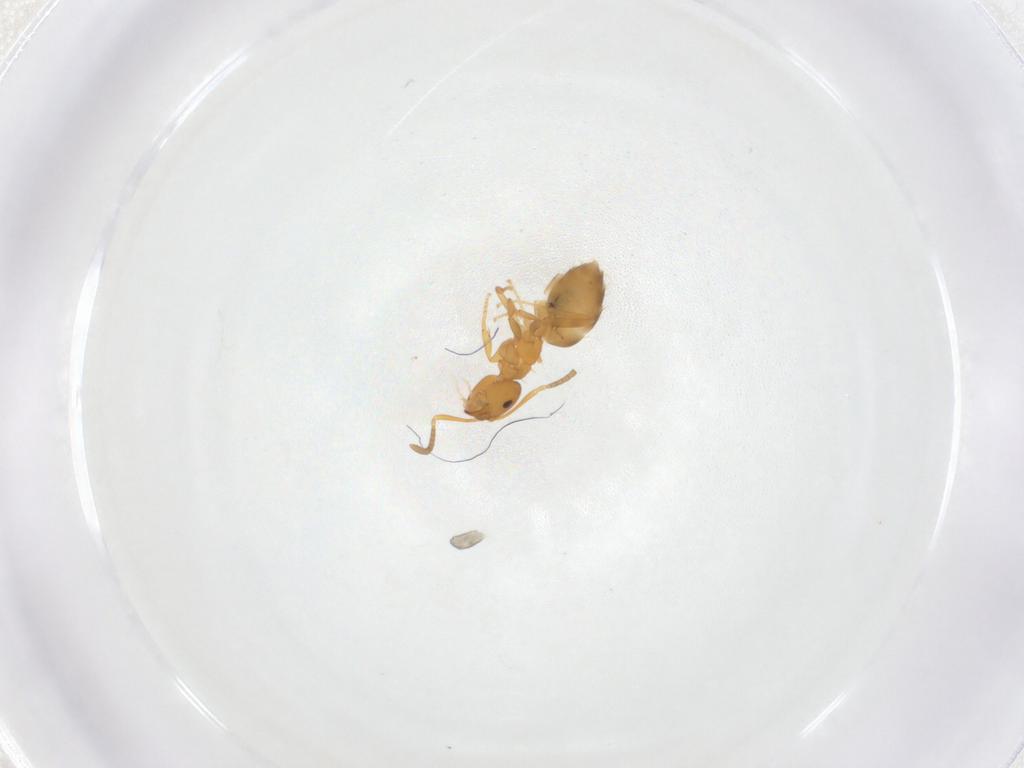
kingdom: Animalia
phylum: Arthropoda
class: Insecta
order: Hymenoptera
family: Formicidae
